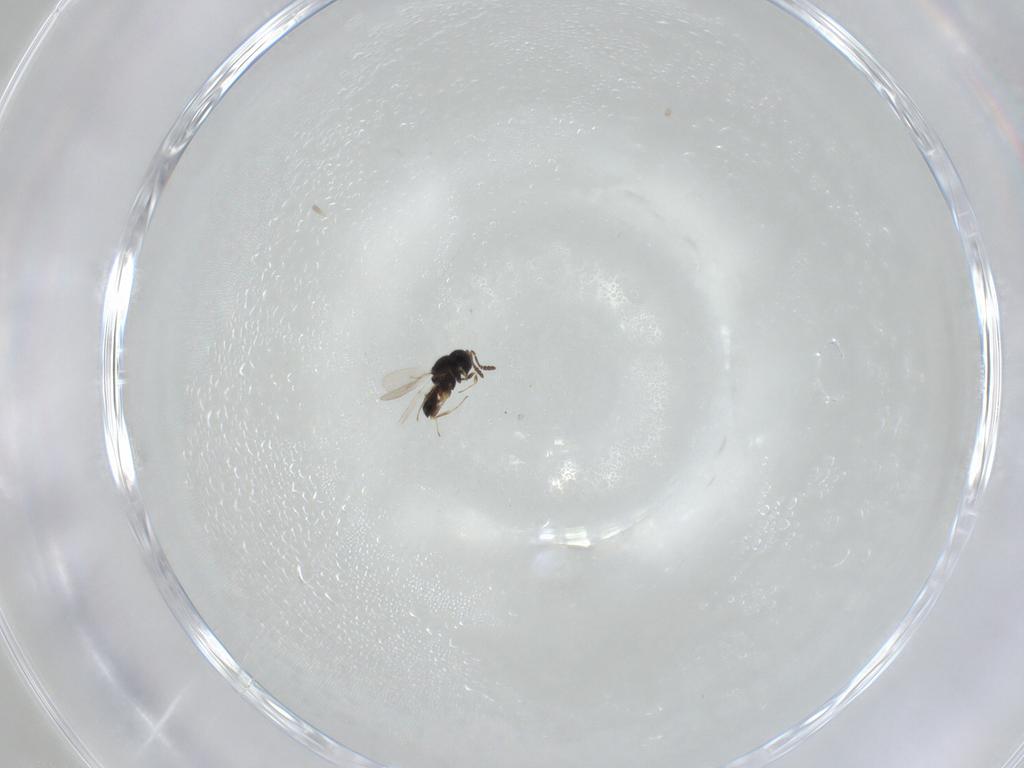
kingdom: Animalia
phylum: Arthropoda
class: Insecta
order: Hymenoptera
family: Scelionidae
